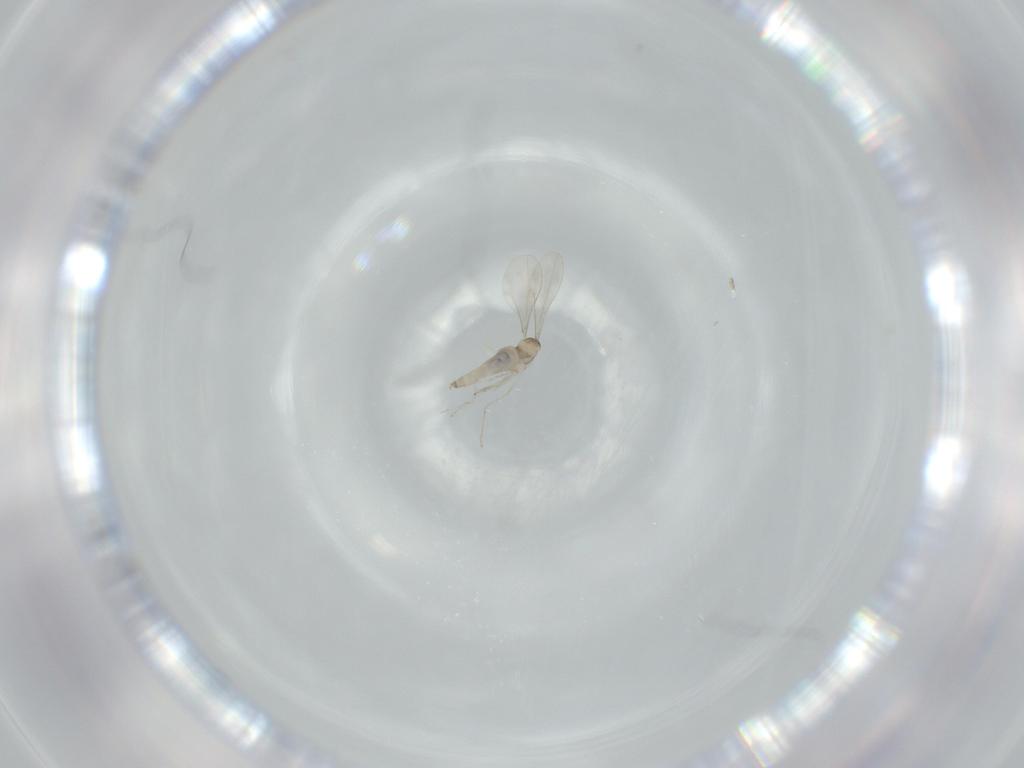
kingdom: Animalia
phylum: Arthropoda
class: Insecta
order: Diptera
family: Cecidomyiidae
